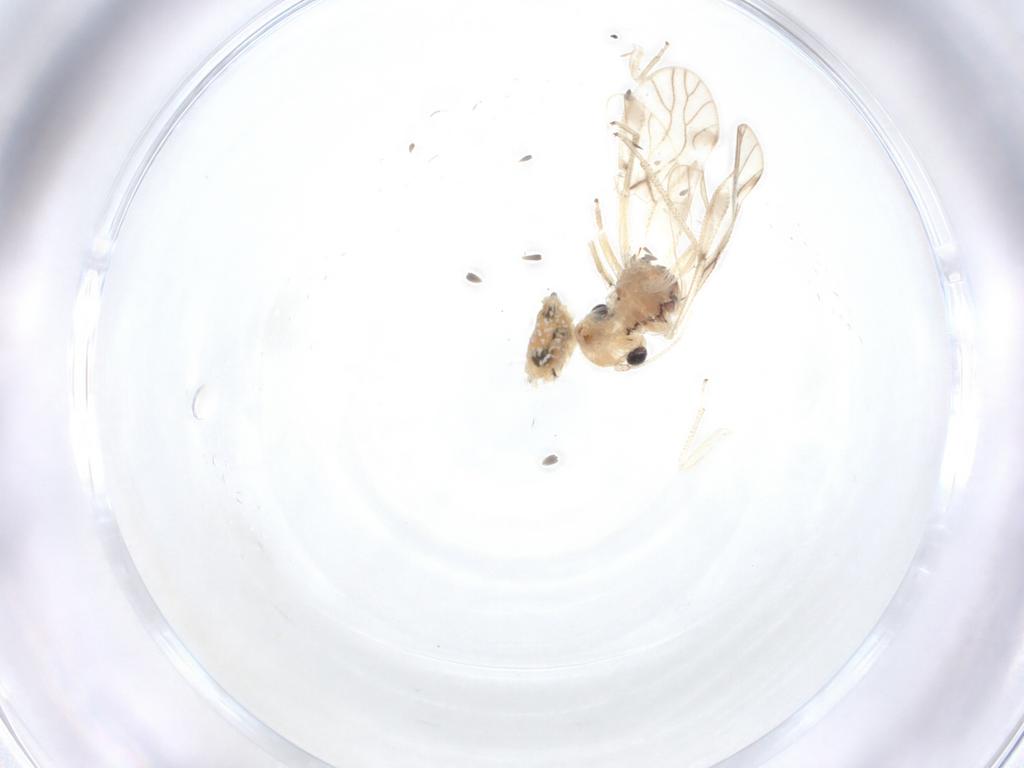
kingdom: Animalia
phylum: Arthropoda
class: Insecta
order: Psocodea
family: Caeciliusidae
